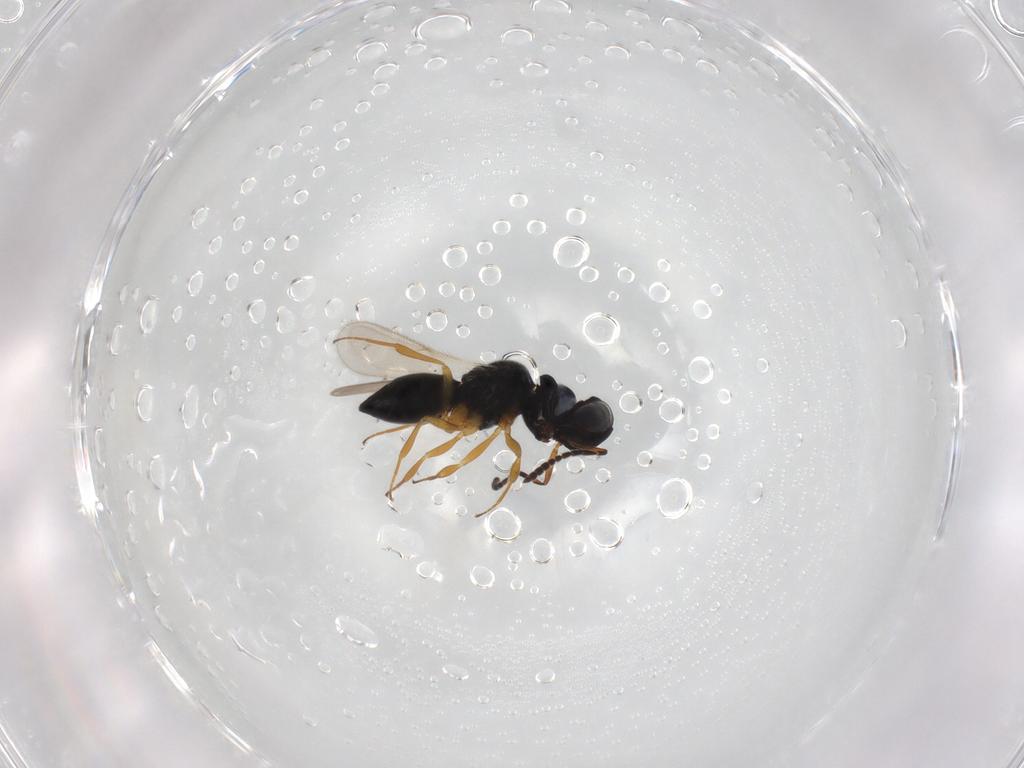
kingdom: Animalia
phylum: Arthropoda
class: Insecta
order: Hymenoptera
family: Scelionidae
